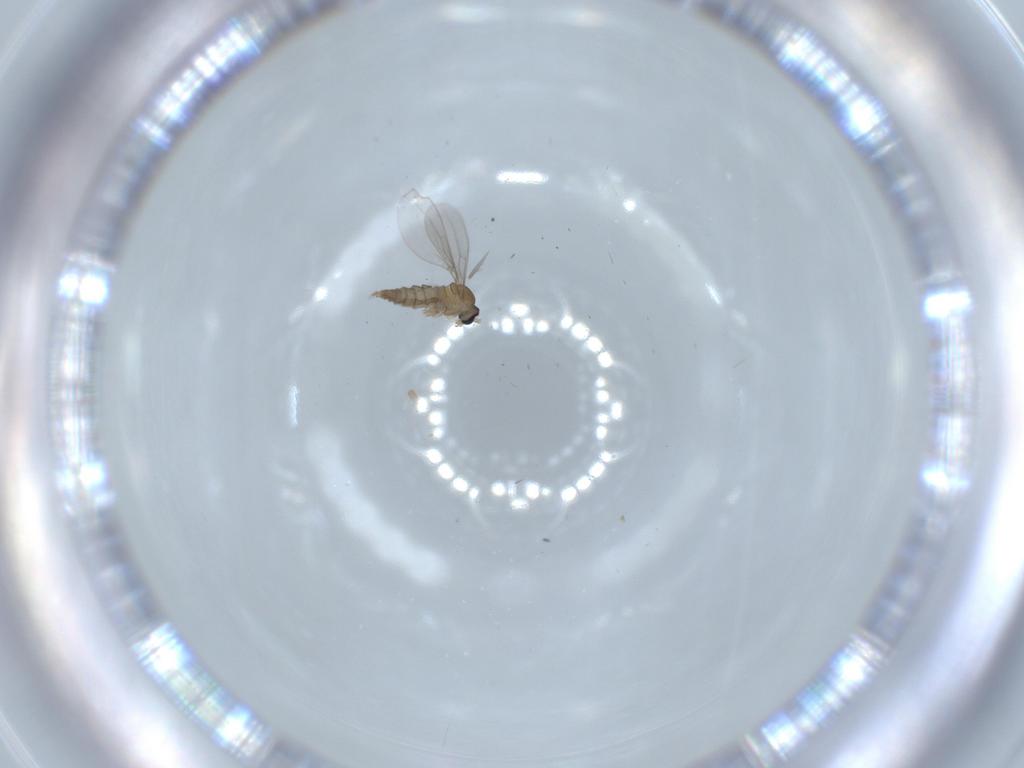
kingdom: Animalia
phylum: Arthropoda
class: Insecta
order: Diptera
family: Cecidomyiidae
